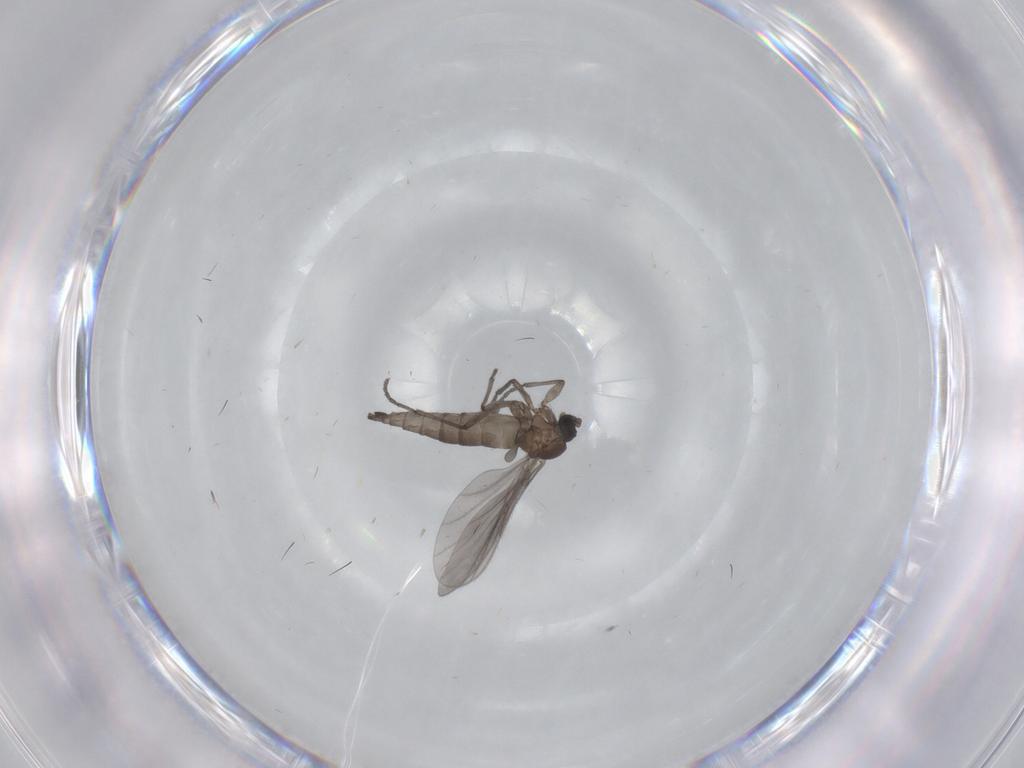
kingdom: Animalia
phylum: Arthropoda
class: Insecta
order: Diptera
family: Sciaridae
